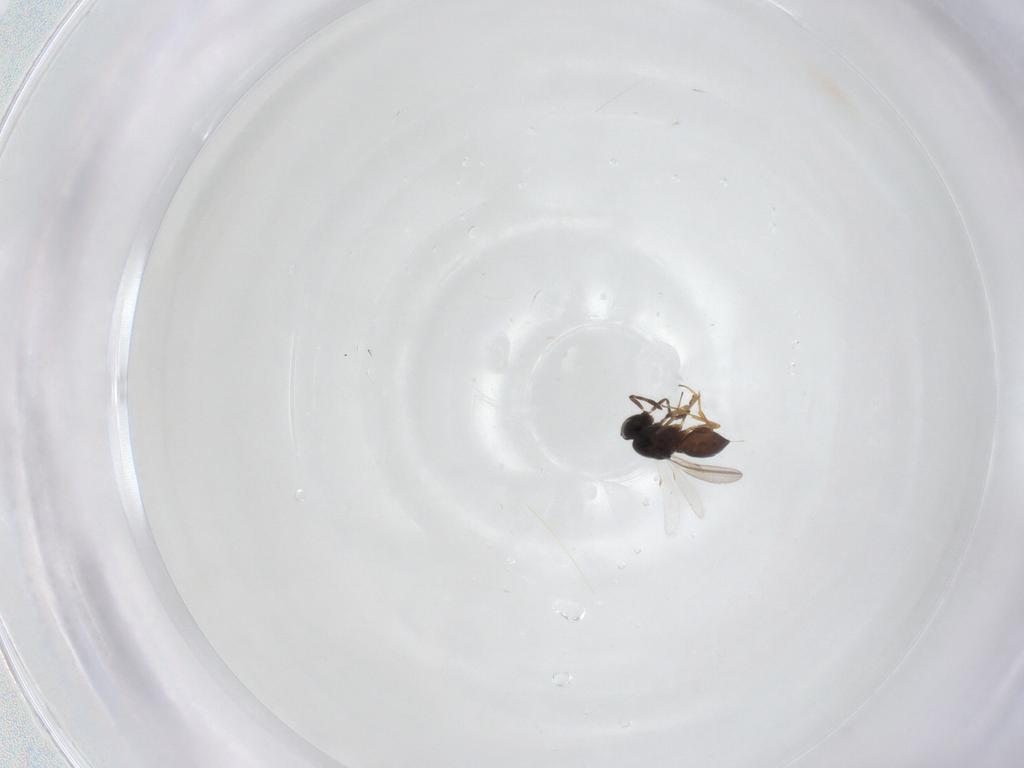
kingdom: Animalia
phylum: Arthropoda
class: Insecta
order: Hymenoptera
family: Scelionidae
